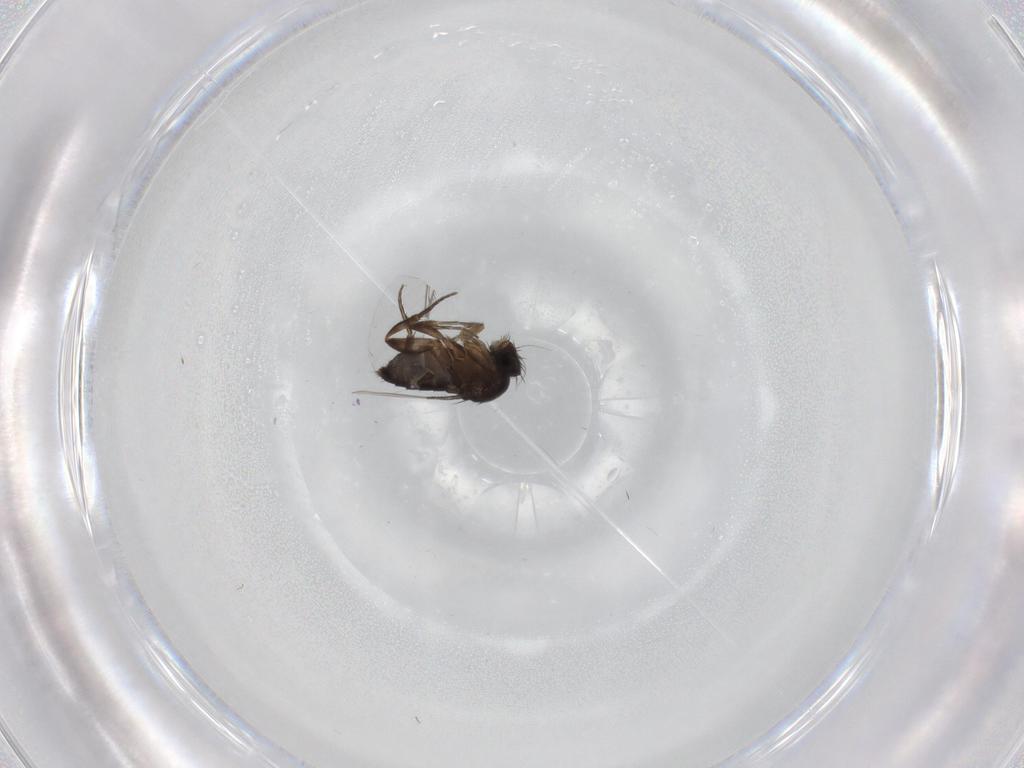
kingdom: Animalia
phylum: Arthropoda
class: Insecta
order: Diptera
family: Phoridae
